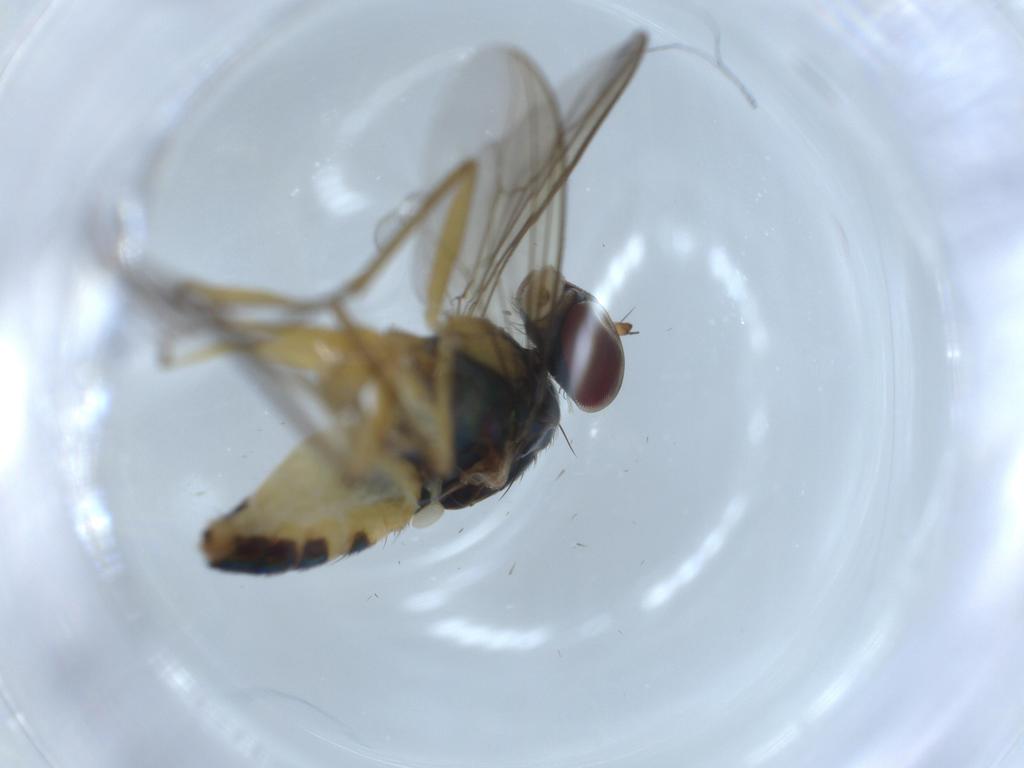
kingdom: Animalia
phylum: Arthropoda
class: Insecta
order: Diptera
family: Dolichopodidae
